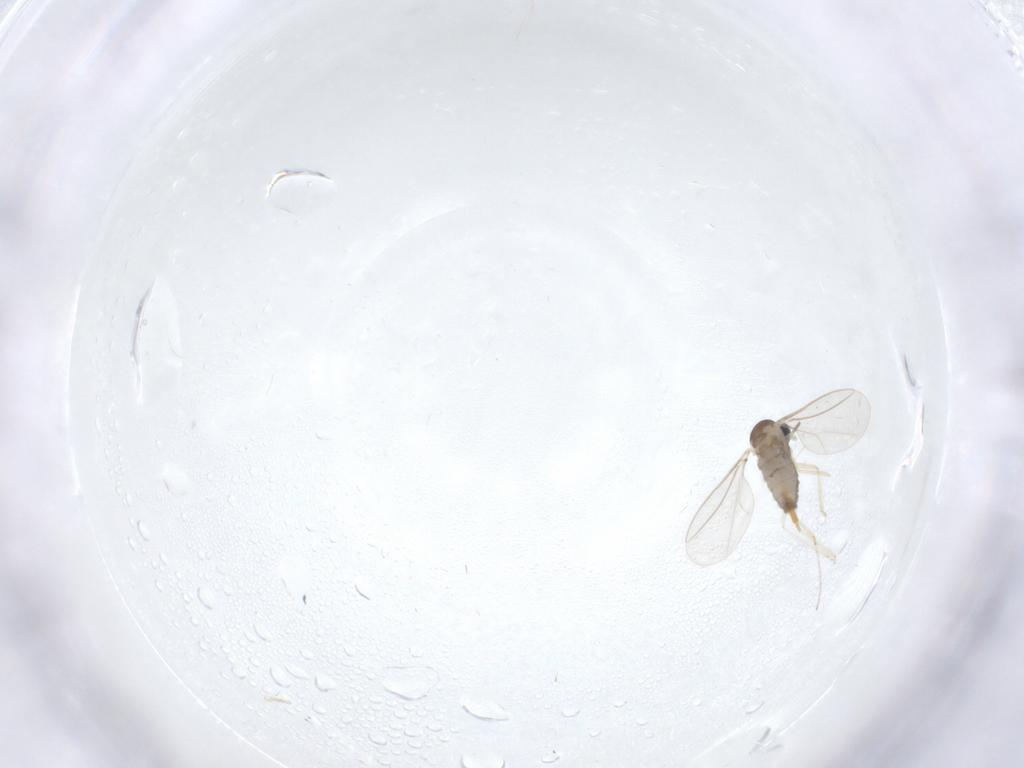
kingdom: Animalia
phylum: Arthropoda
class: Insecta
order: Diptera
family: Cecidomyiidae
